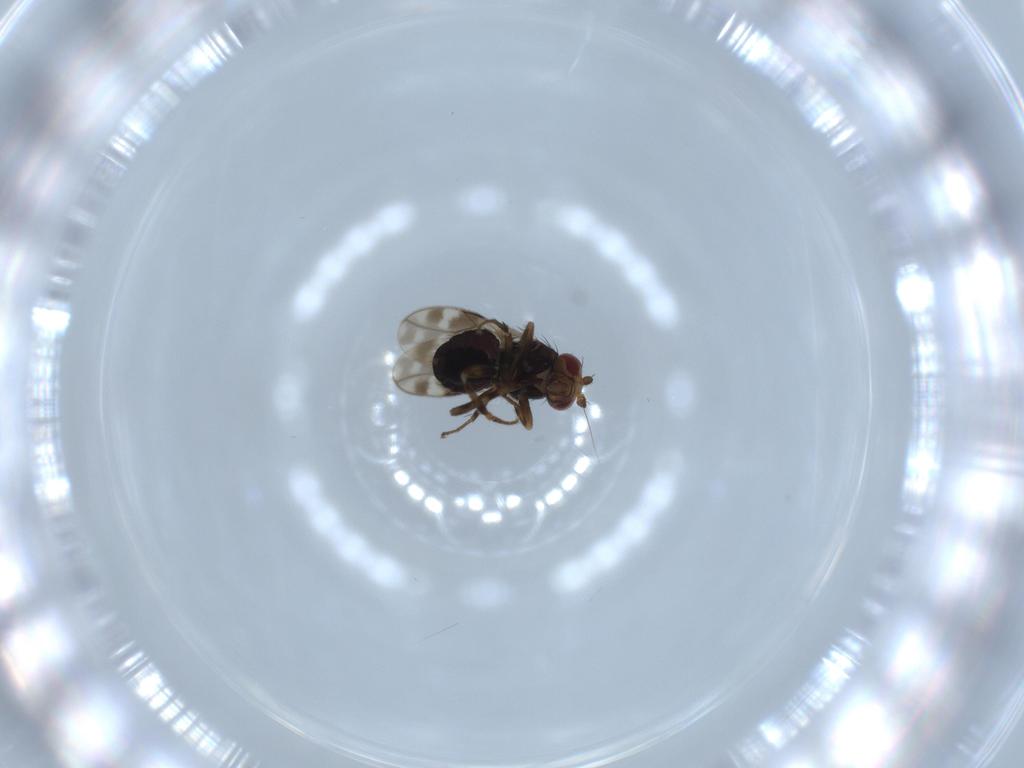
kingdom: Animalia
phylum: Arthropoda
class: Insecta
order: Diptera
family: Sphaeroceridae
